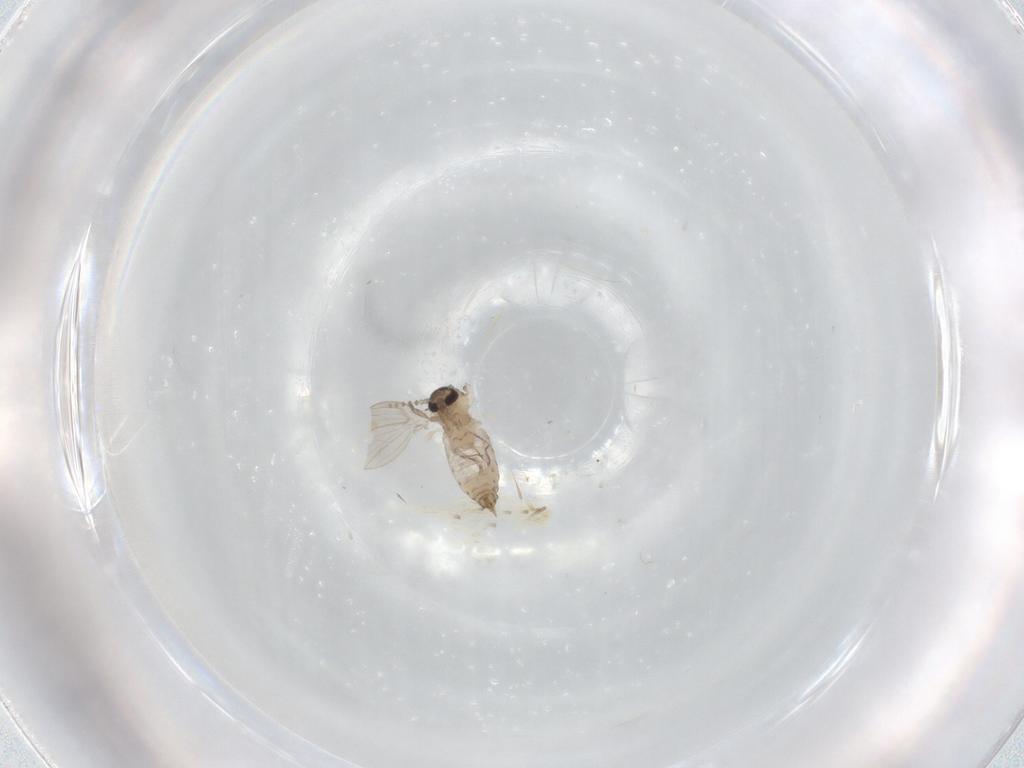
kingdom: Animalia
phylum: Arthropoda
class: Insecta
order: Diptera
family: Psychodidae
